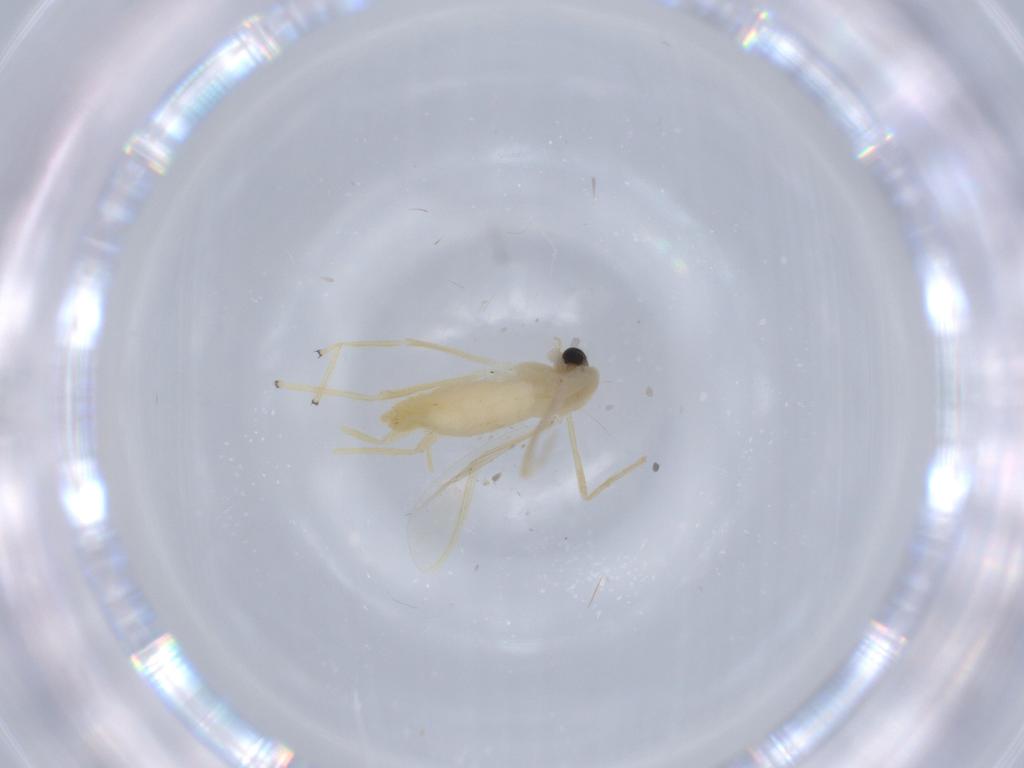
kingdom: Animalia
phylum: Arthropoda
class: Insecta
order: Diptera
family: Chironomidae
